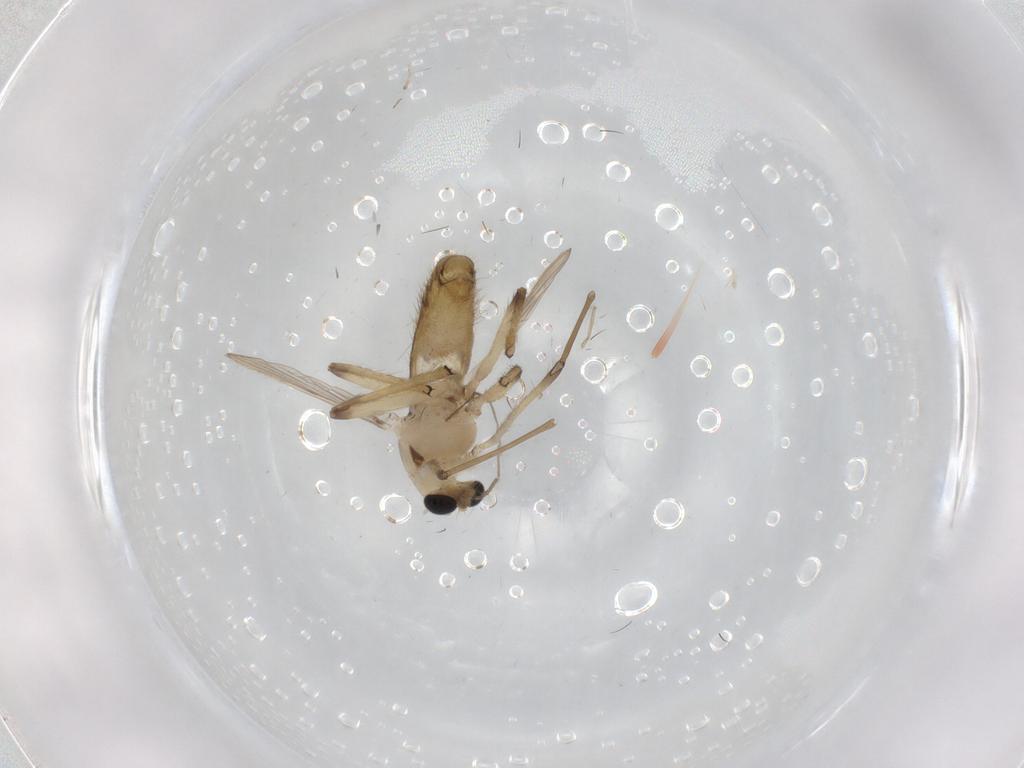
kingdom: Animalia
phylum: Arthropoda
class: Insecta
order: Diptera
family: Chironomidae
